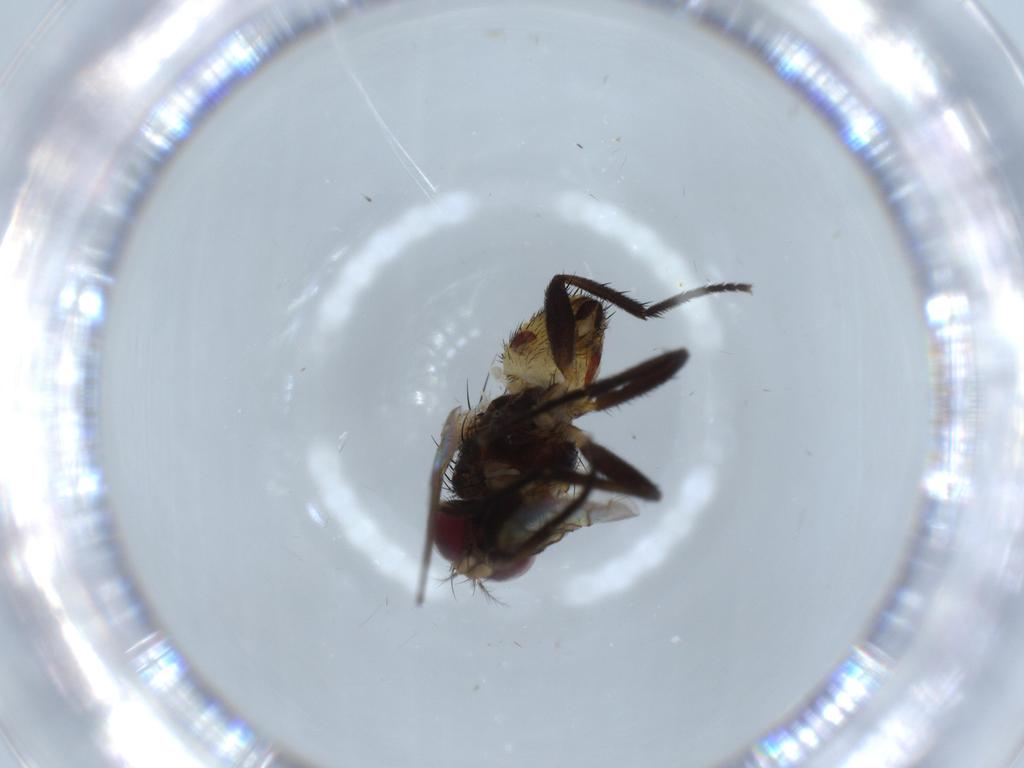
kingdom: Animalia
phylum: Arthropoda
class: Insecta
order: Diptera
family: Anthomyiidae
